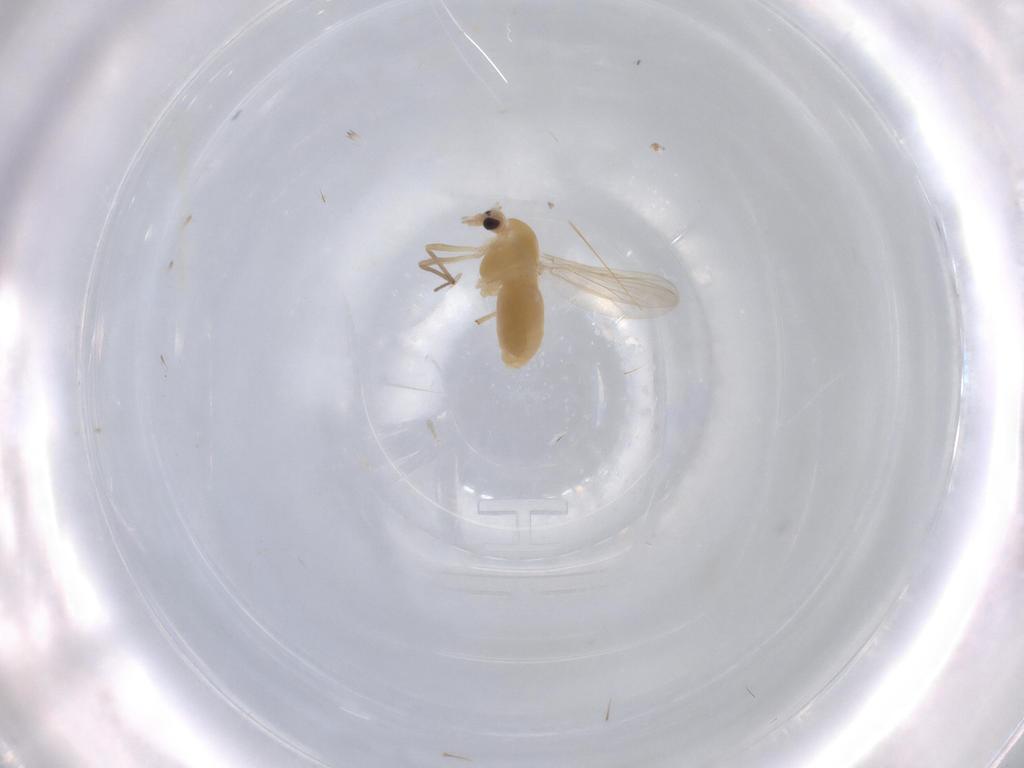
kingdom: Animalia
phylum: Arthropoda
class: Insecta
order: Diptera
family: Chironomidae
